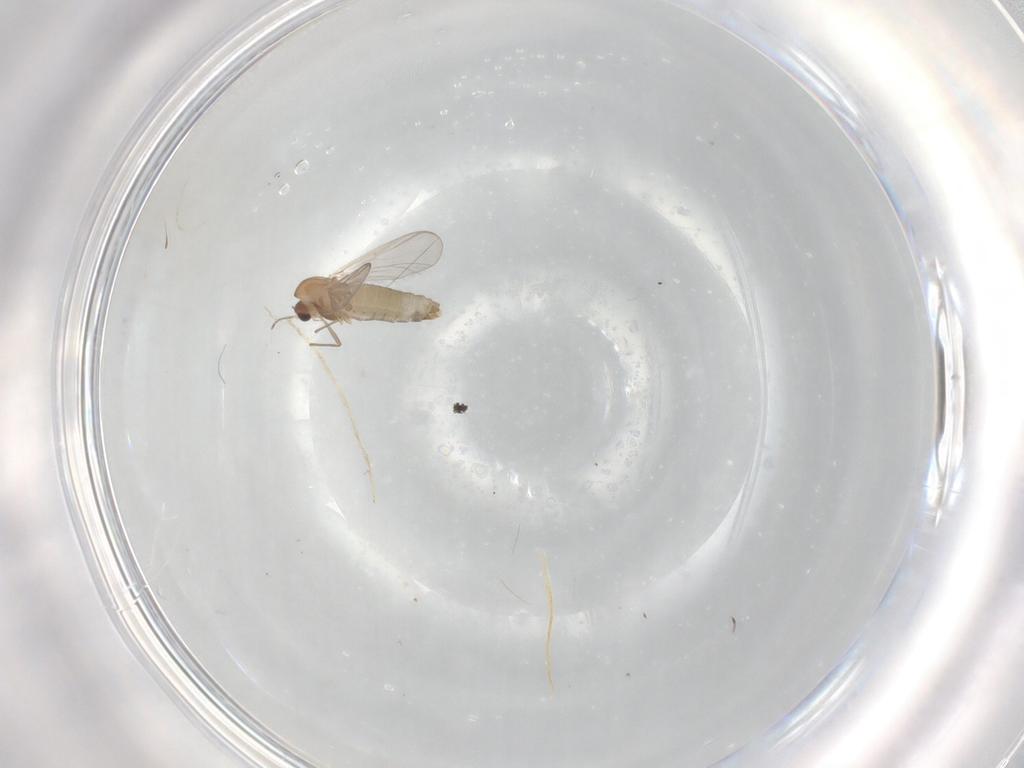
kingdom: Animalia
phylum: Arthropoda
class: Insecta
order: Diptera
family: Chironomidae
